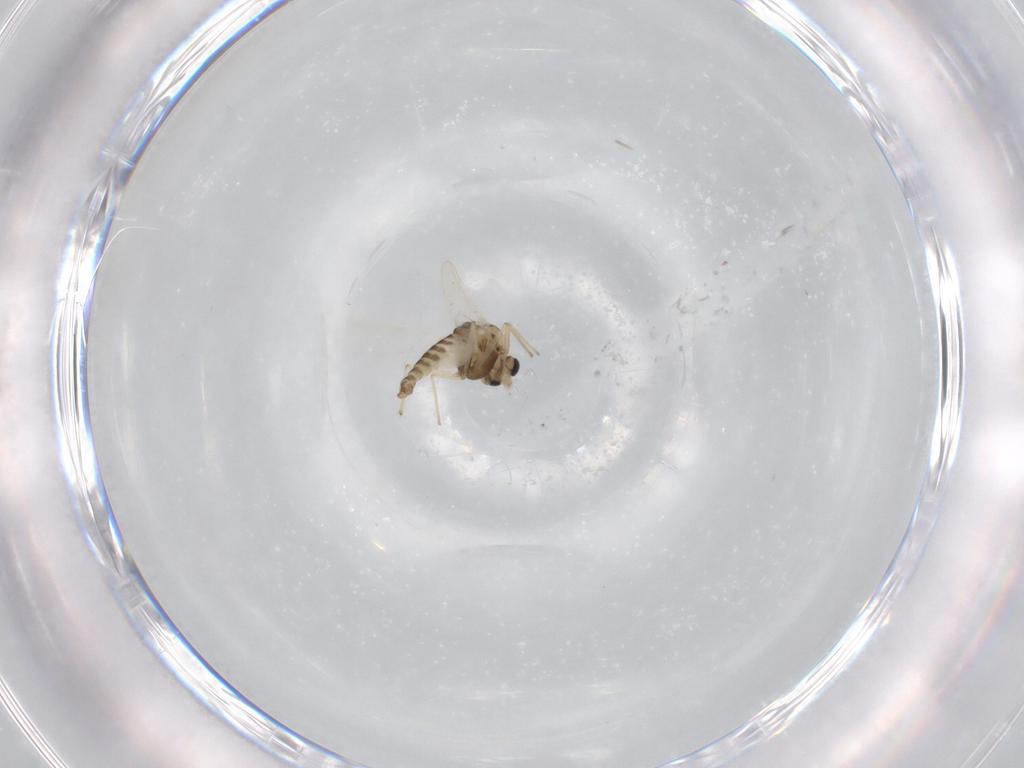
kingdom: Animalia
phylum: Arthropoda
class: Insecta
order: Diptera
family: Chironomidae
